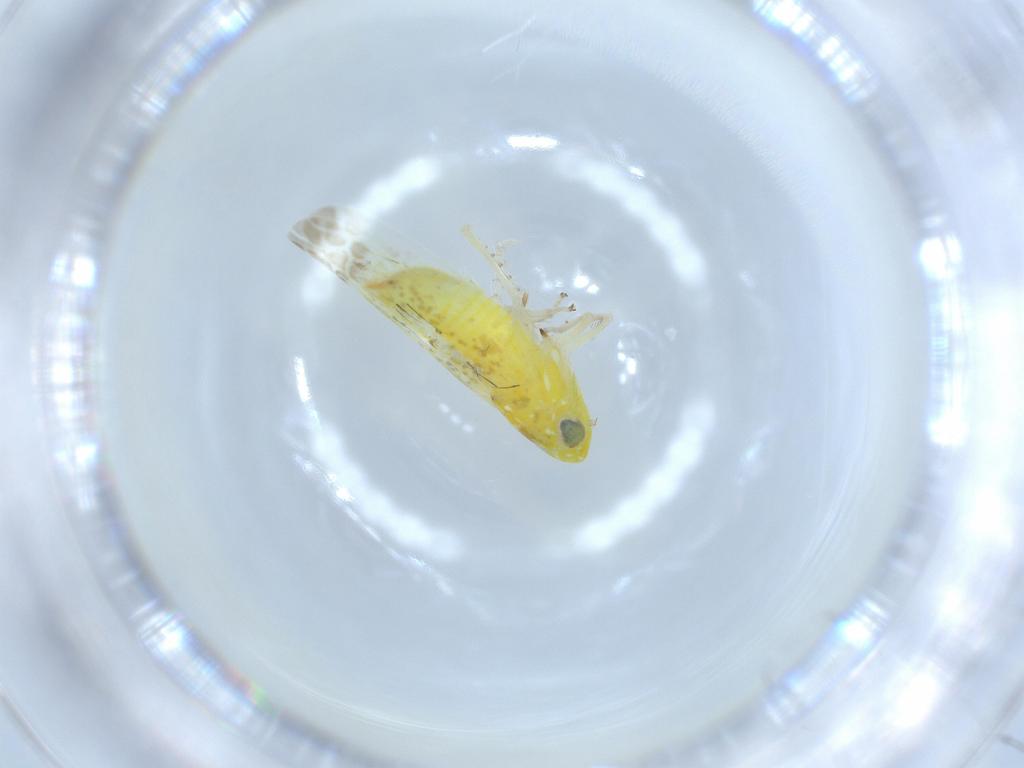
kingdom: Animalia
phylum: Arthropoda
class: Insecta
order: Hemiptera
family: Cicadellidae
